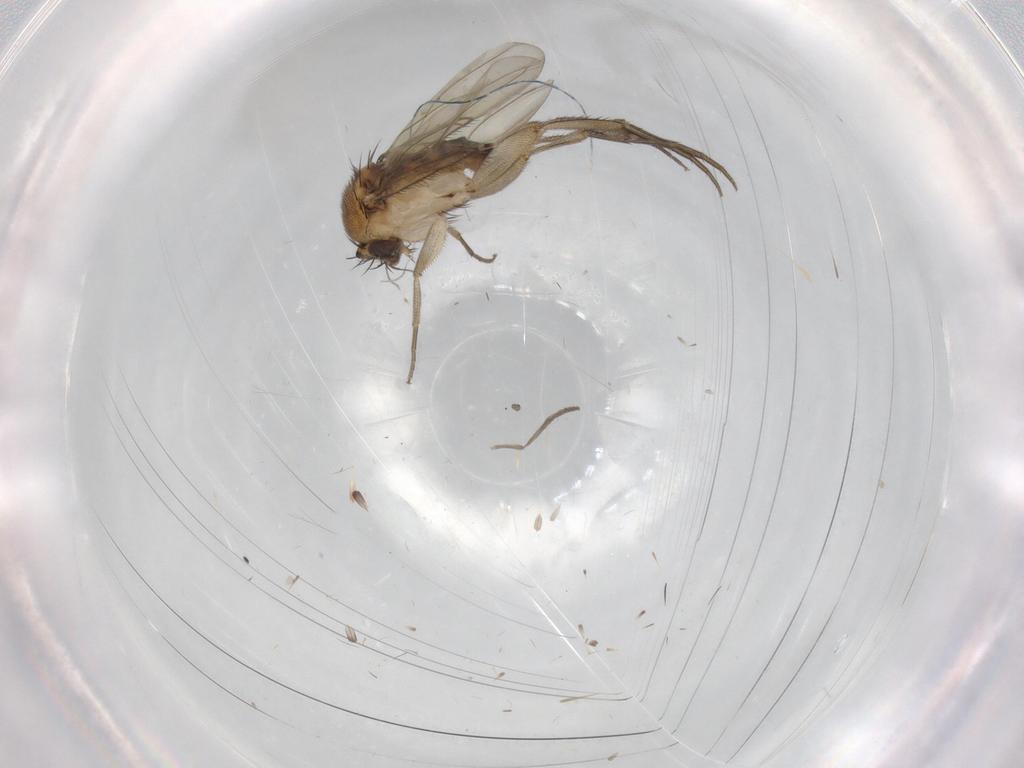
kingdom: Animalia
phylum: Arthropoda
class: Insecta
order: Diptera
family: Phoridae
